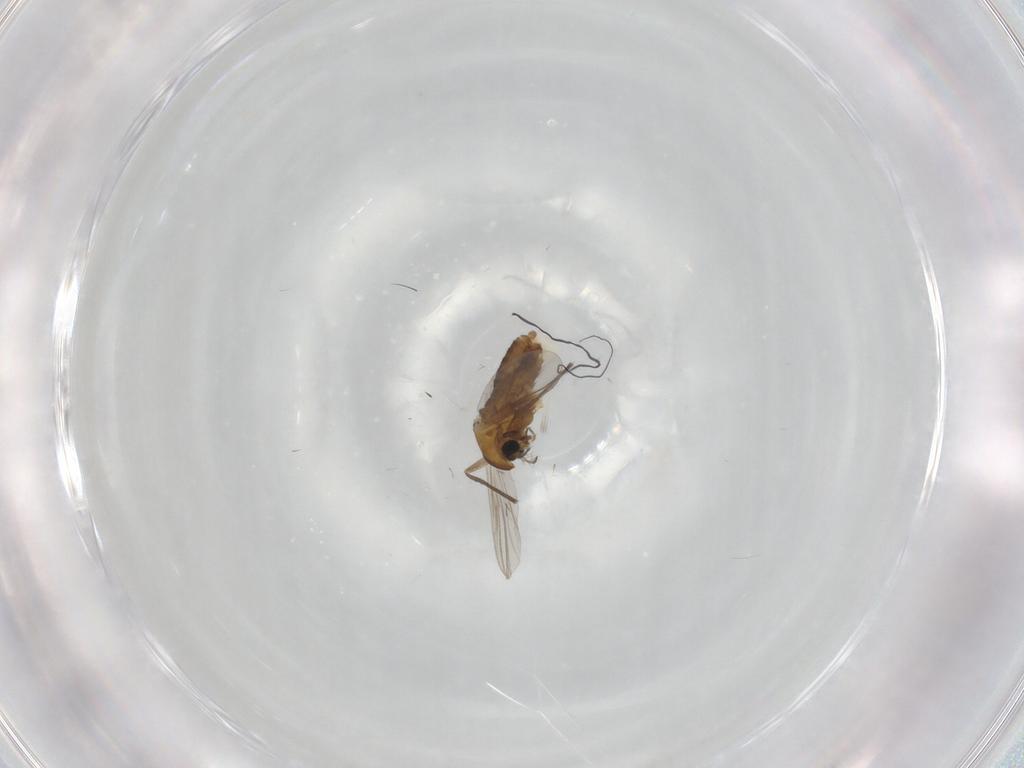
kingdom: Animalia
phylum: Arthropoda
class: Insecta
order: Diptera
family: Chironomidae
